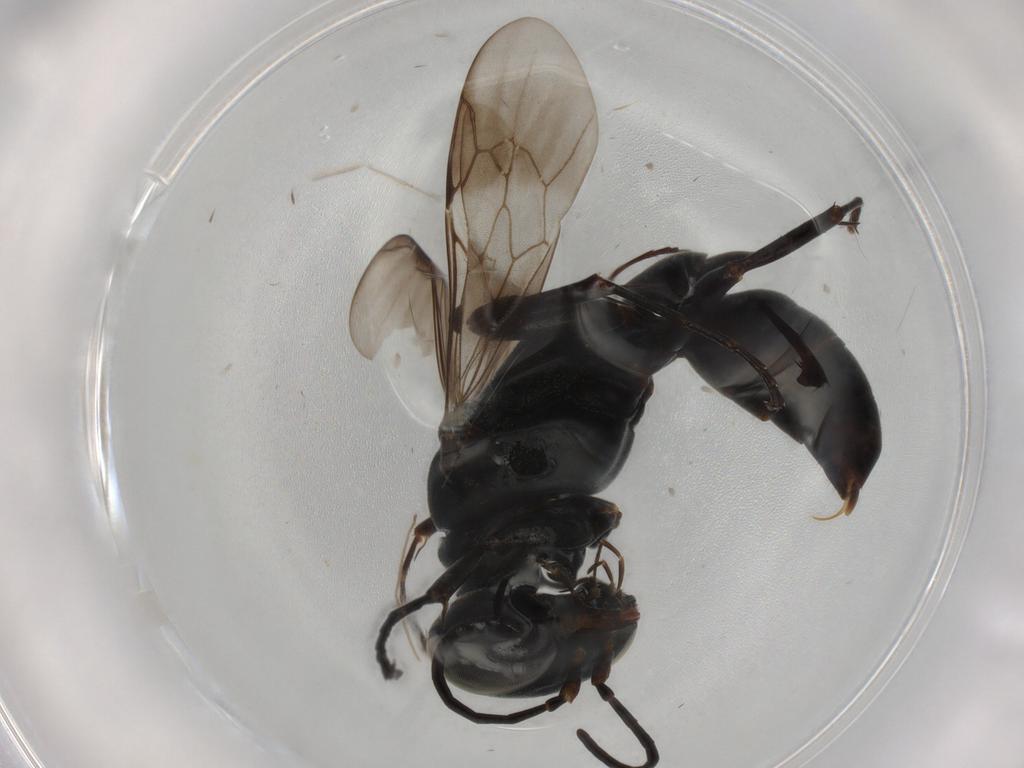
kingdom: Animalia
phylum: Arthropoda
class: Insecta
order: Hymenoptera
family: Crabronidae
